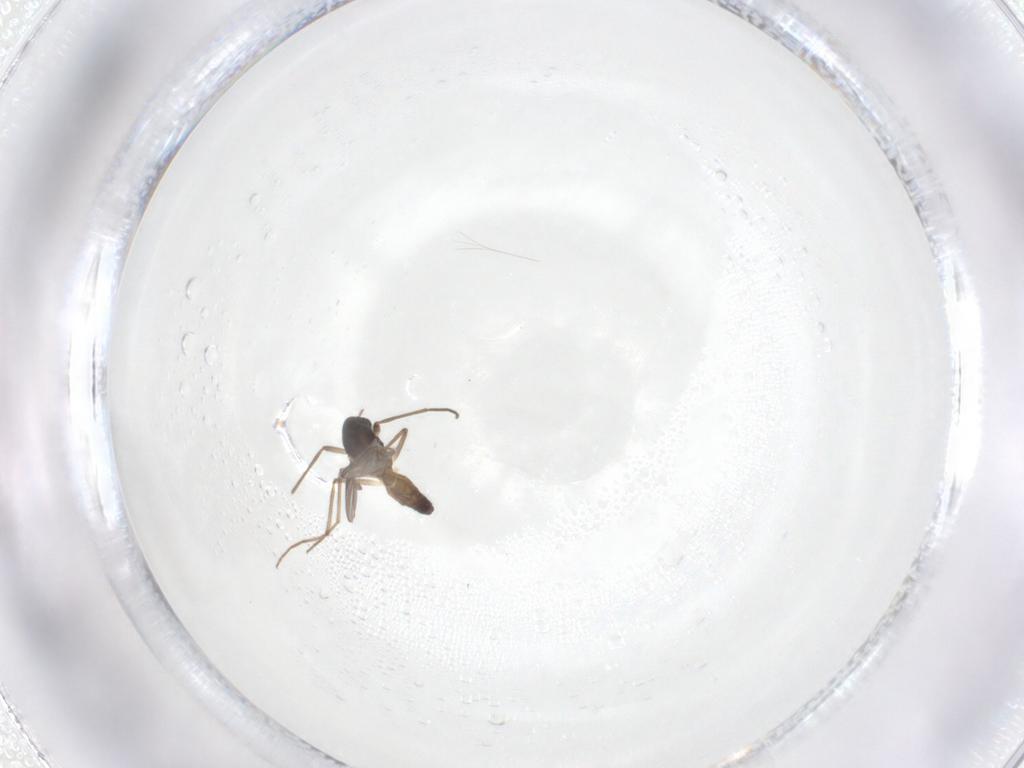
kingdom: Animalia
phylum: Arthropoda
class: Insecta
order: Diptera
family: Chironomidae
